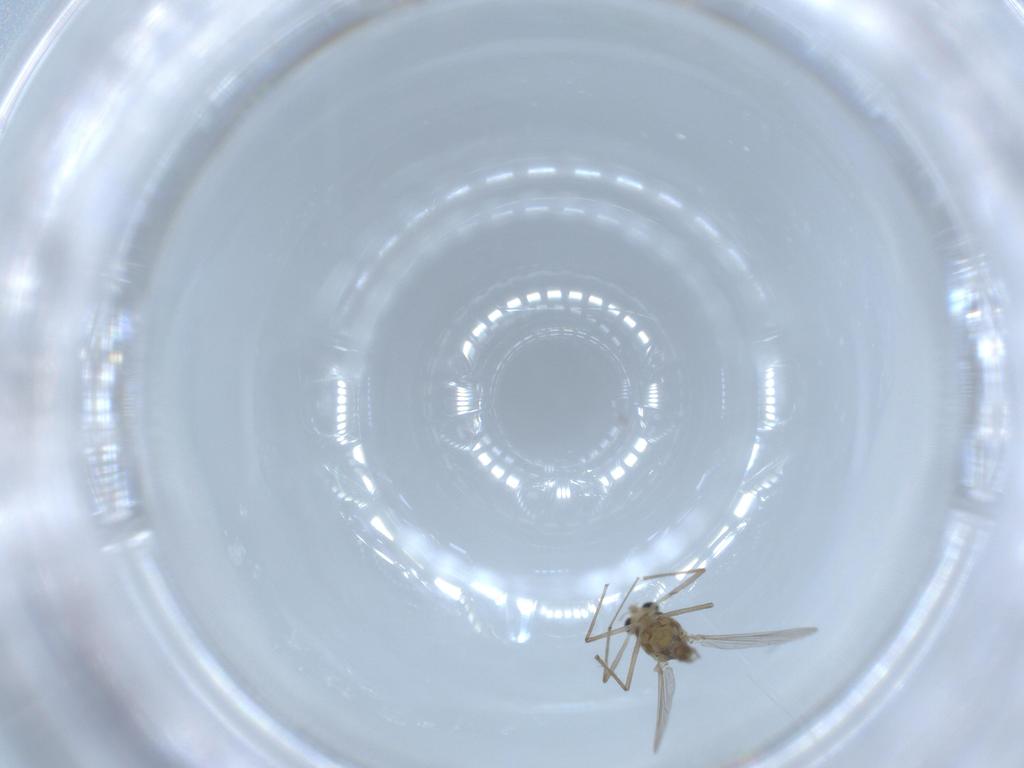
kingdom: Animalia
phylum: Arthropoda
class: Insecta
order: Diptera
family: Chironomidae
